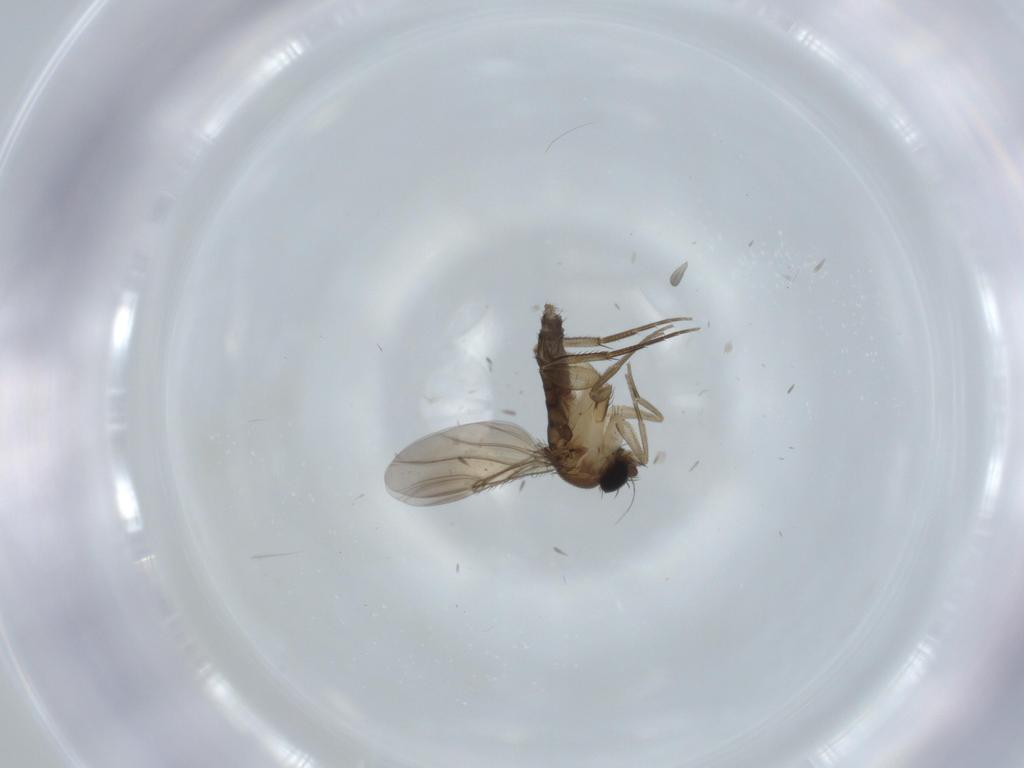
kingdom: Animalia
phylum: Arthropoda
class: Insecta
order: Diptera
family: Phoridae
